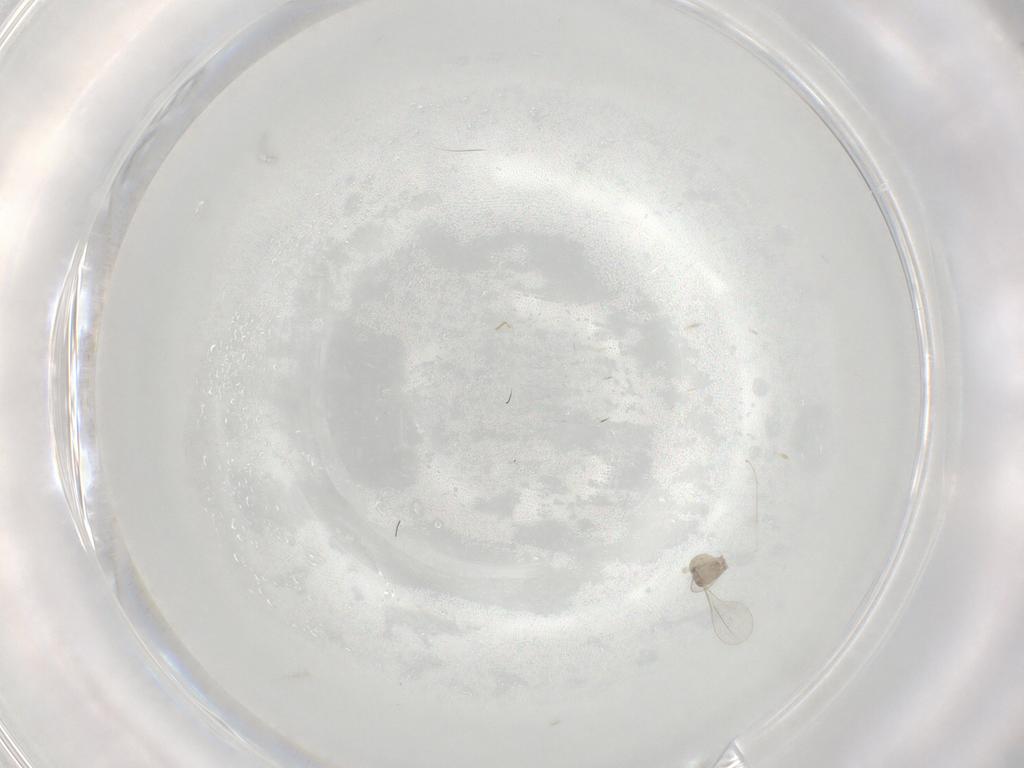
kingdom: Animalia
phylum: Arthropoda
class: Insecta
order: Diptera
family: Cecidomyiidae
